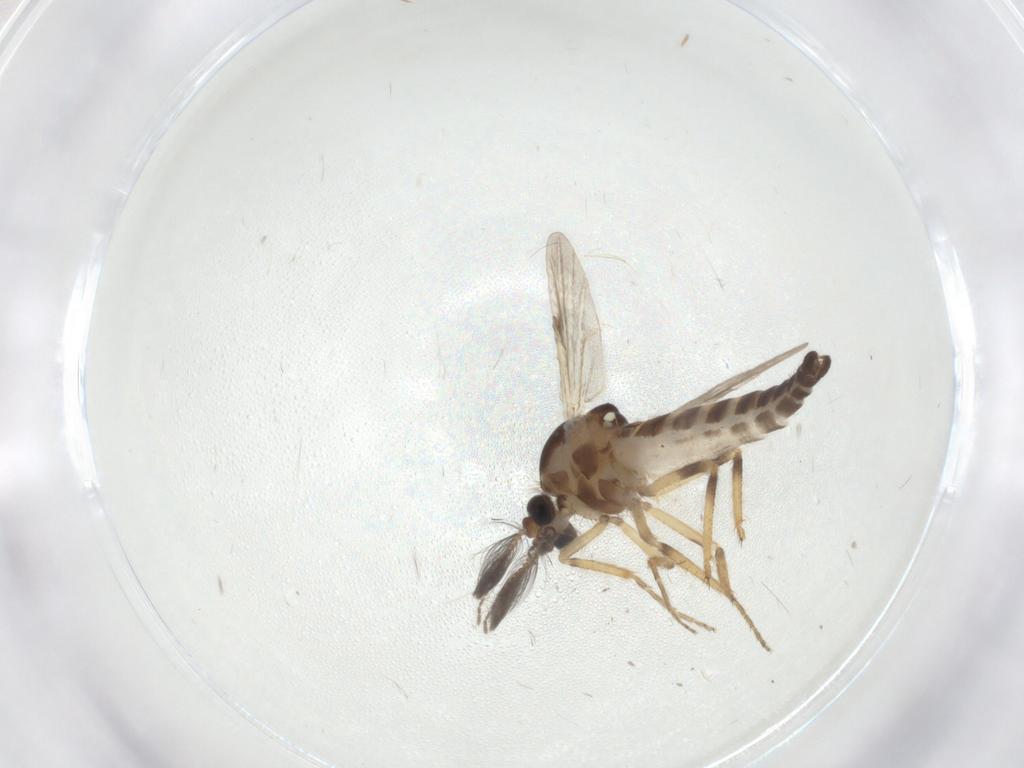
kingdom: Animalia
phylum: Arthropoda
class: Insecta
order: Diptera
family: Ceratopogonidae
